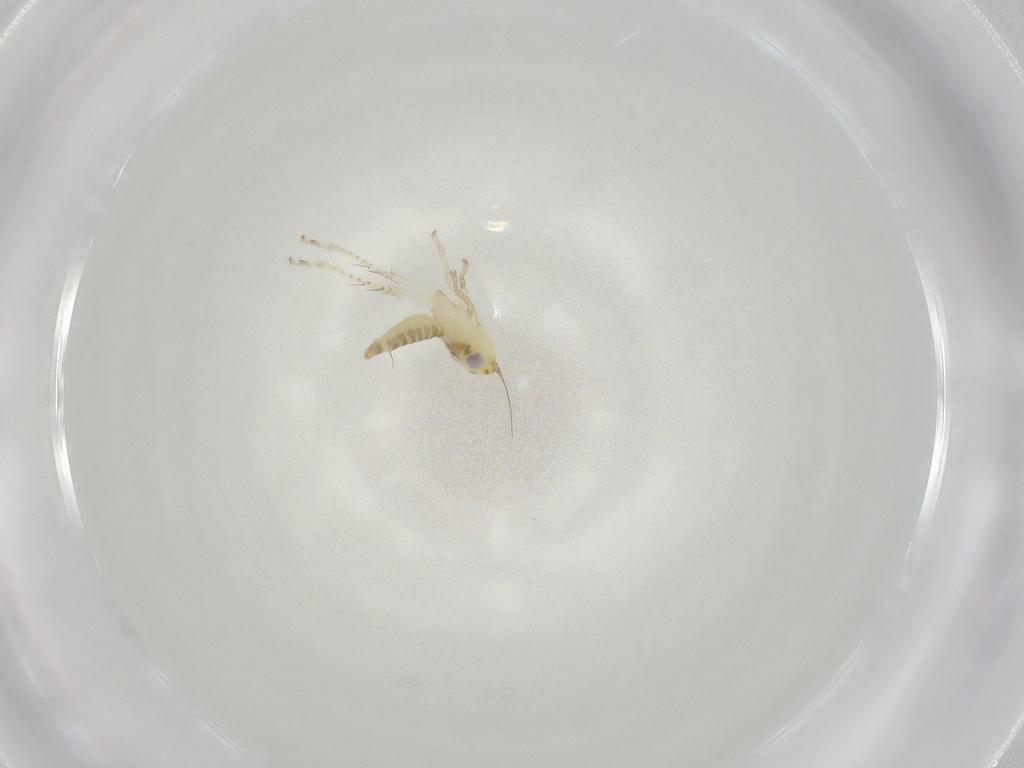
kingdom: Animalia
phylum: Arthropoda
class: Insecta
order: Hemiptera
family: Cicadellidae
